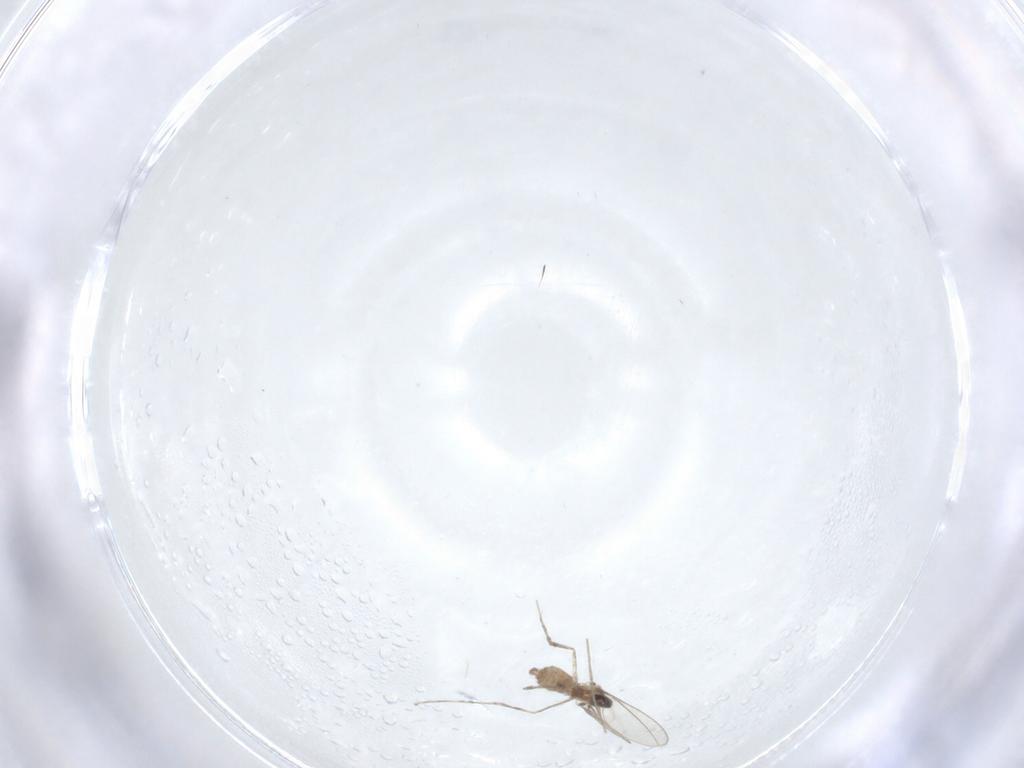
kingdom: Animalia
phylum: Arthropoda
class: Insecta
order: Diptera
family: Cecidomyiidae
